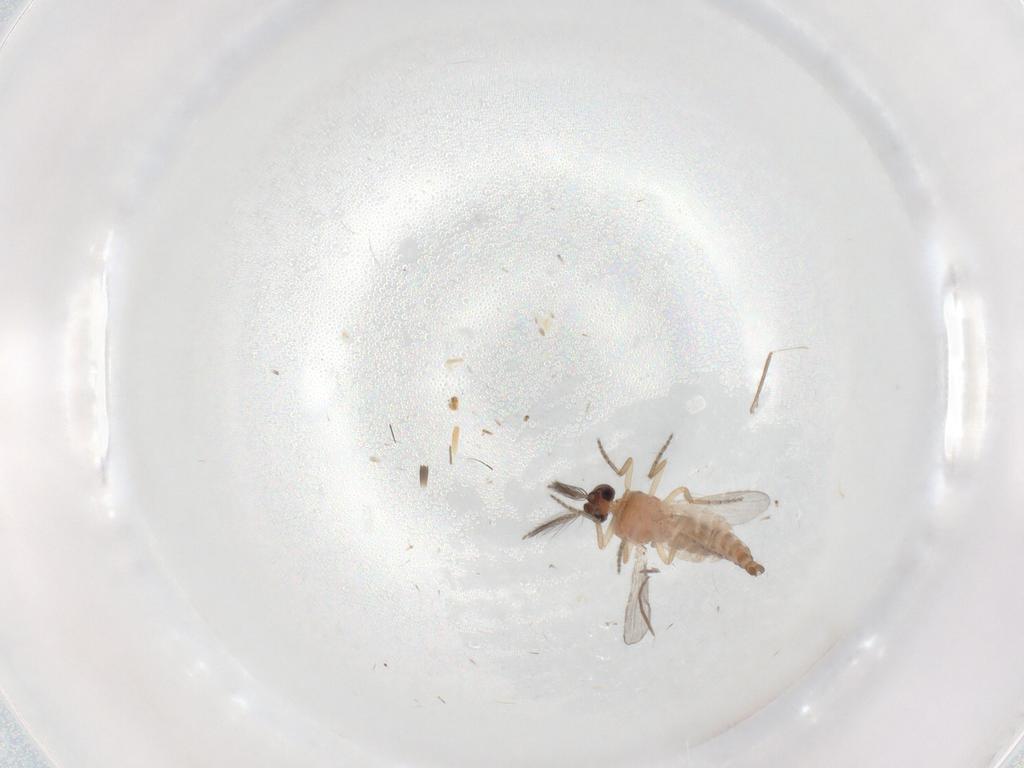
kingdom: Animalia
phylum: Arthropoda
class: Insecta
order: Diptera
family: Ceratopogonidae
